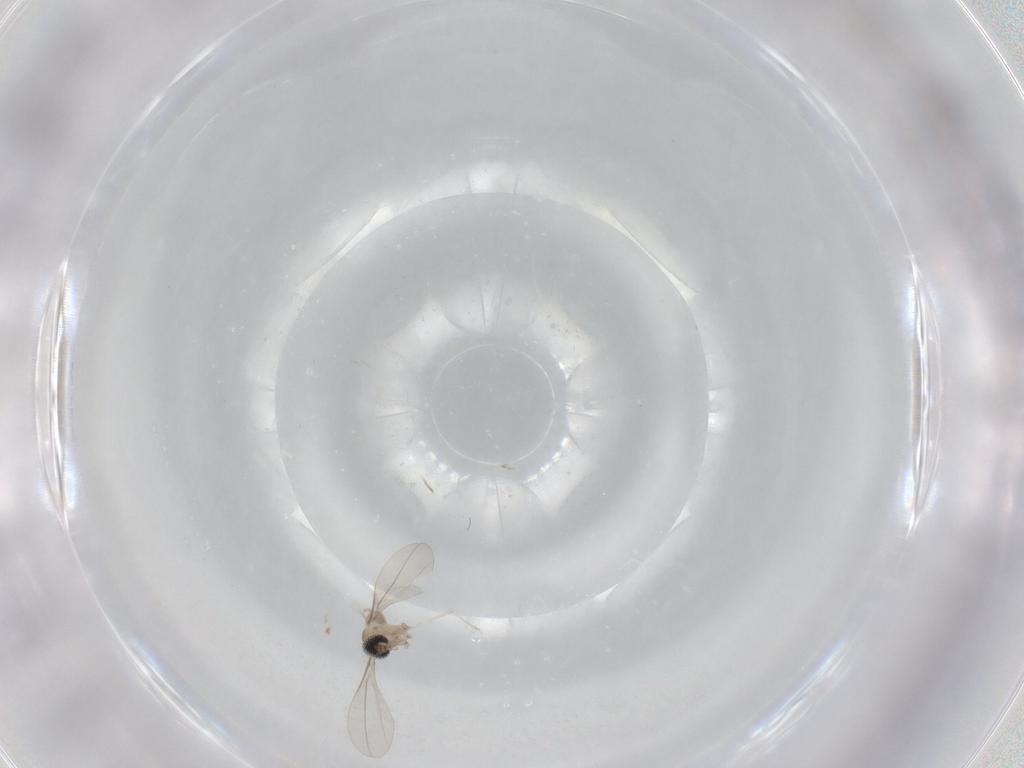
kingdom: Animalia
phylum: Arthropoda
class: Insecta
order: Diptera
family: Cecidomyiidae
